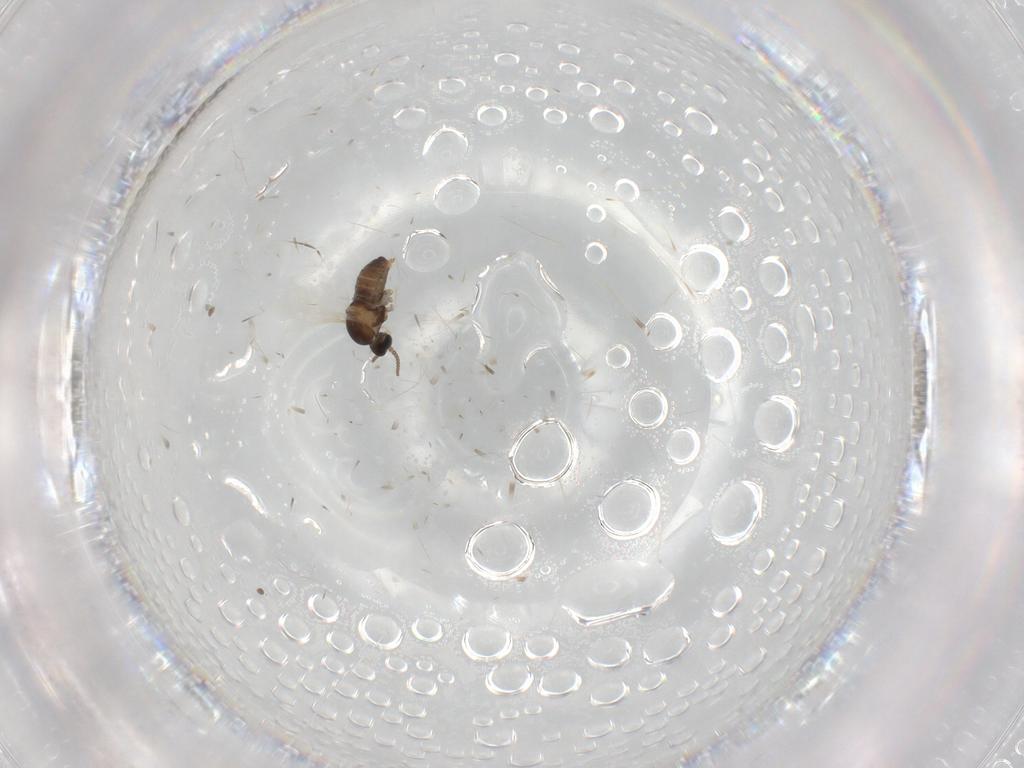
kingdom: Animalia
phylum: Arthropoda
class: Insecta
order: Diptera
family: Cecidomyiidae
